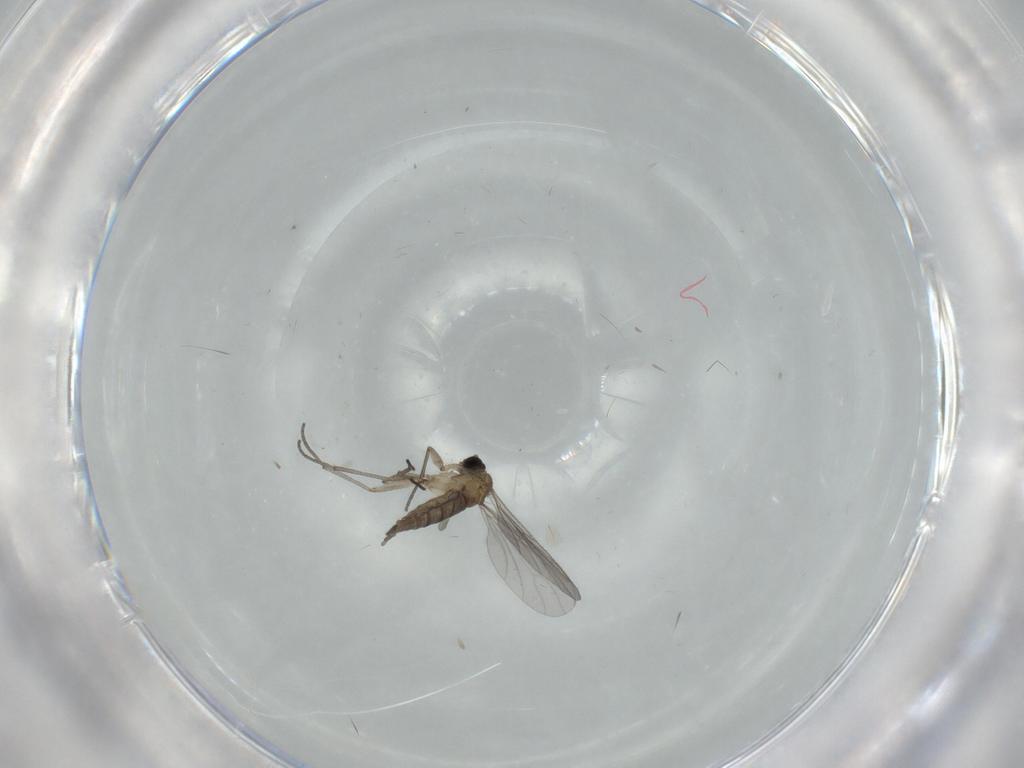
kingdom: Animalia
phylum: Arthropoda
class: Insecta
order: Diptera
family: Sciaridae
